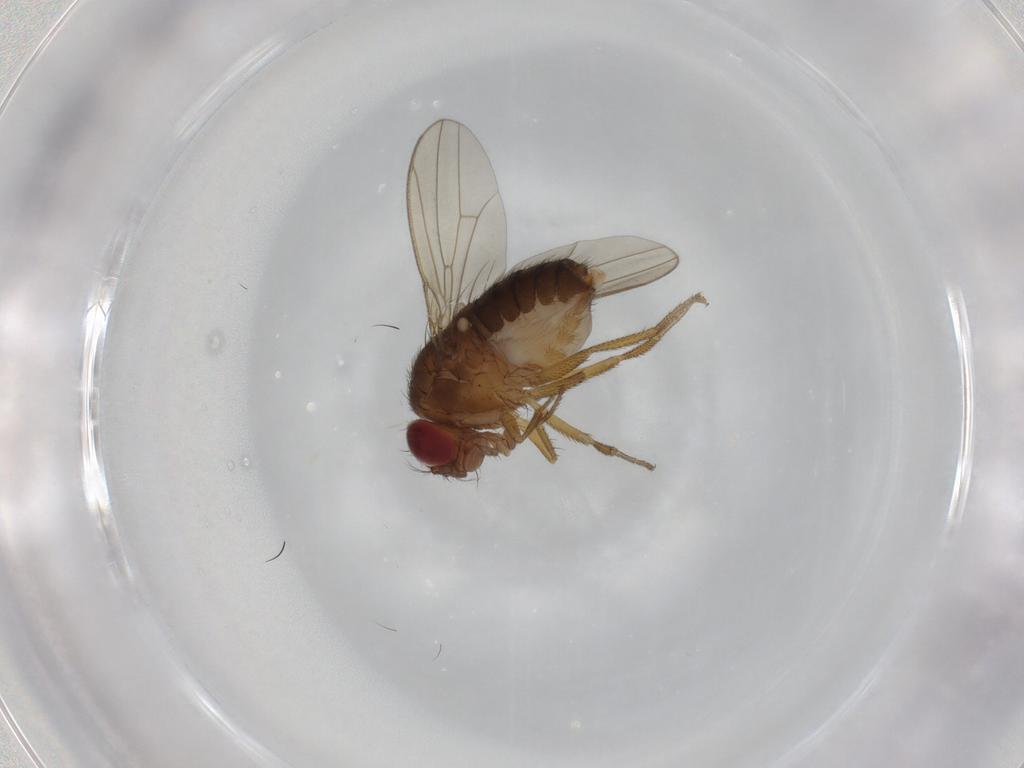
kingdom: Animalia
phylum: Arthropoda
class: Insecta
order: Diptera
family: Drosophilidae
